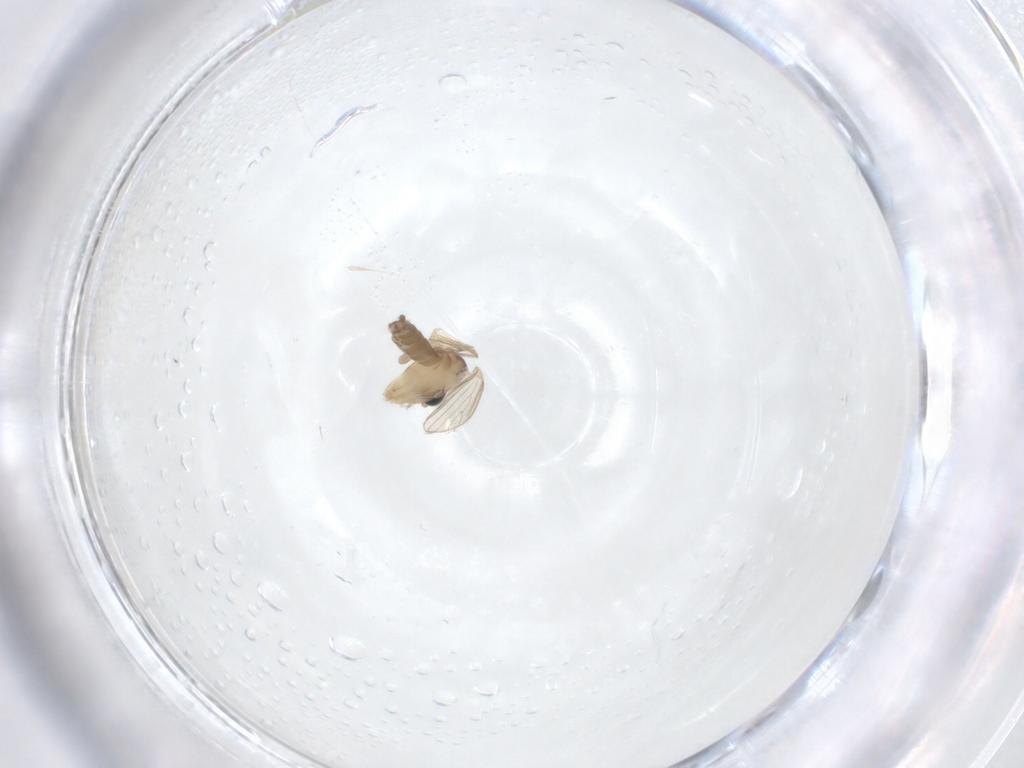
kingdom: Animalia
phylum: Arthropoda
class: Insecta
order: Diptera
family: Psychodidae
